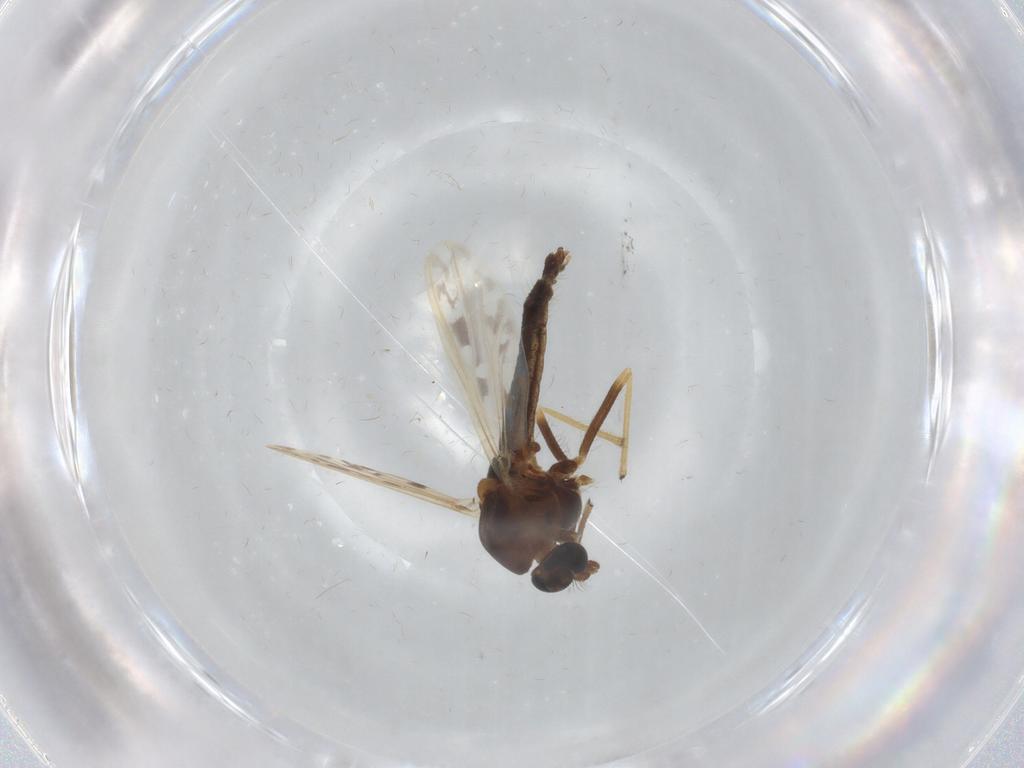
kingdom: Animalia
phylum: Arthropoda
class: Insecta
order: Diptera
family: Chironomidae
